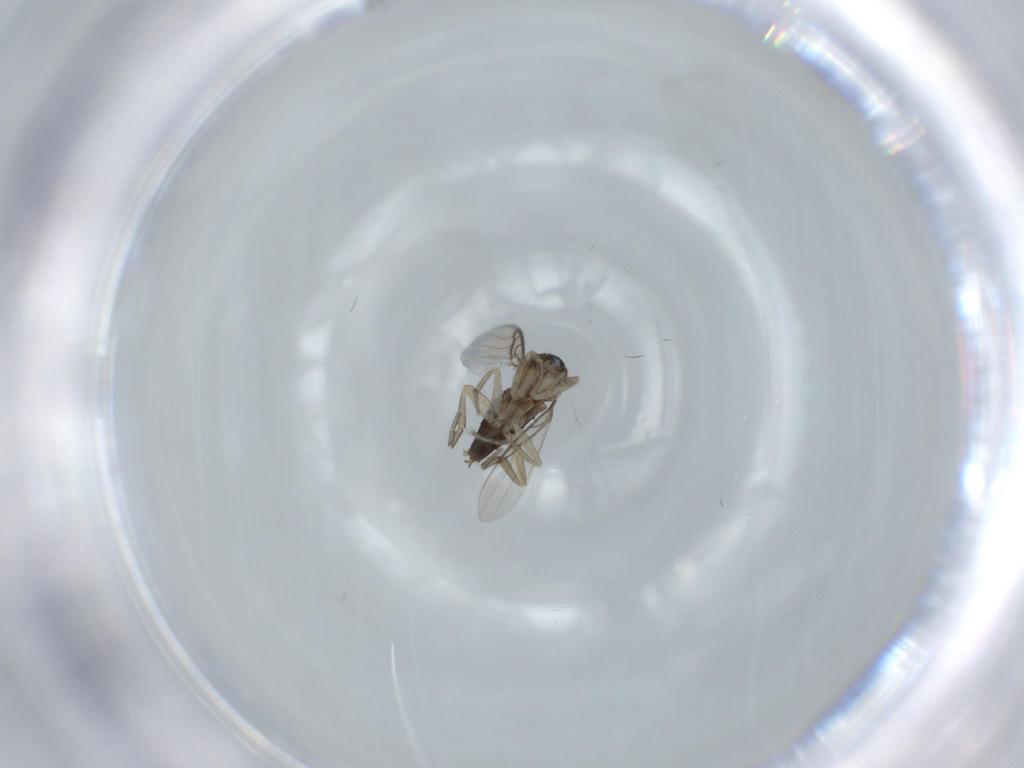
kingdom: Animalia
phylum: Arthropoda
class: Insecta
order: Diptera
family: Phoridae
